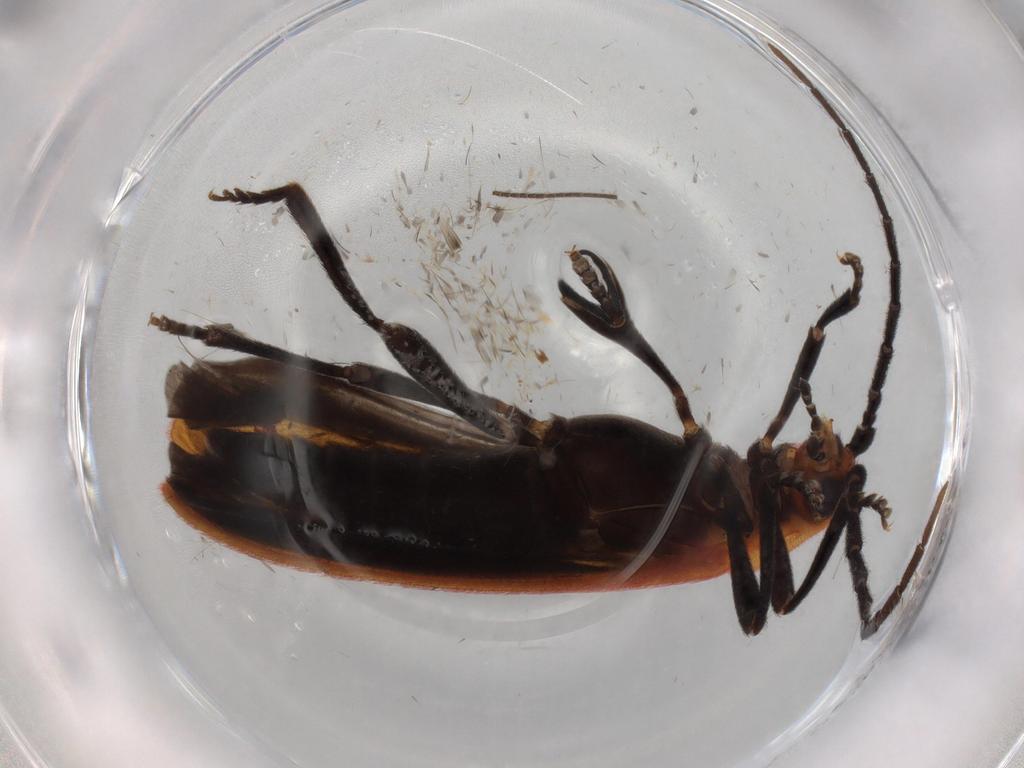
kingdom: Animalia
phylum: Arthropoda
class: Insecta
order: Coleoptera
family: Lycidae
